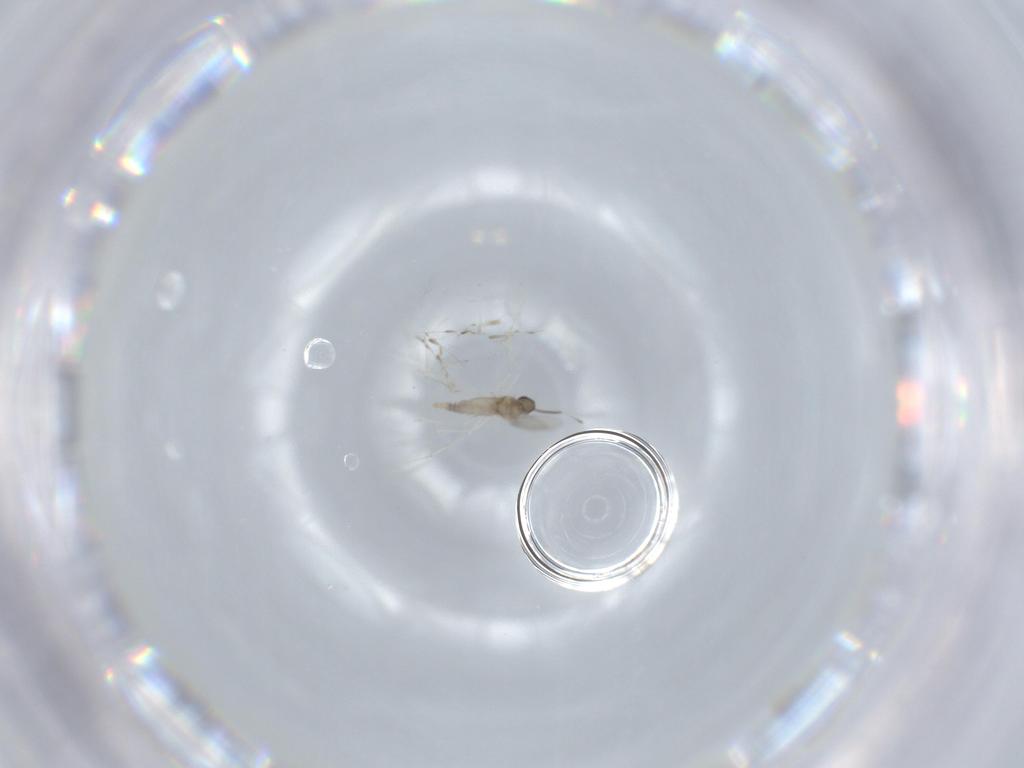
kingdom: Animalia
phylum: Arthropoda
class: Insecta
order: Diptera
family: Cecidomyiidae
